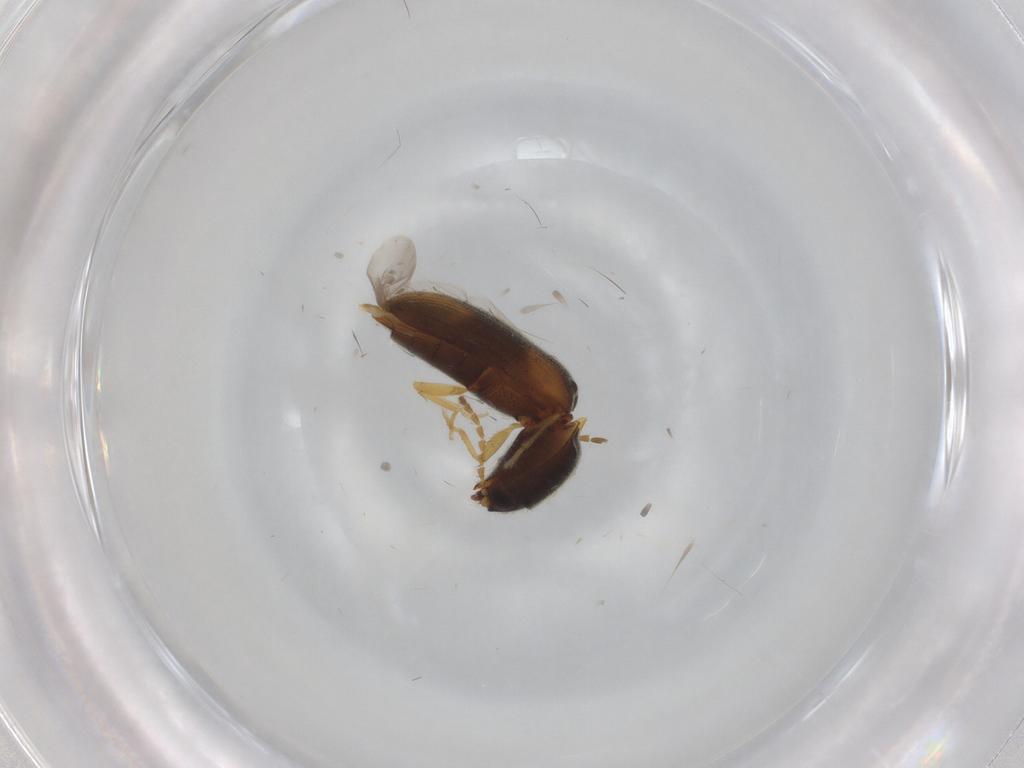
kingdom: Animalia
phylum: Arthropoda
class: Insecta
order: Coleoptera
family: Elateridae
